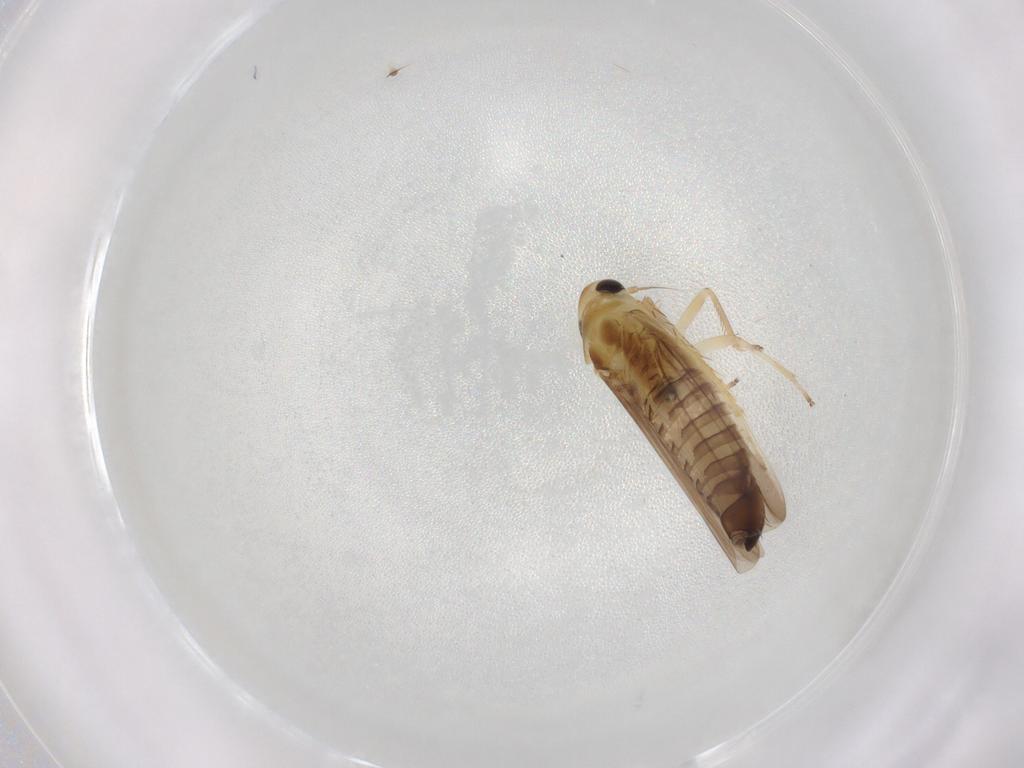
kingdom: Animalia
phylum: Arthropoda
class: Insecta
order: Hemiptera
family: Cicadellidae
